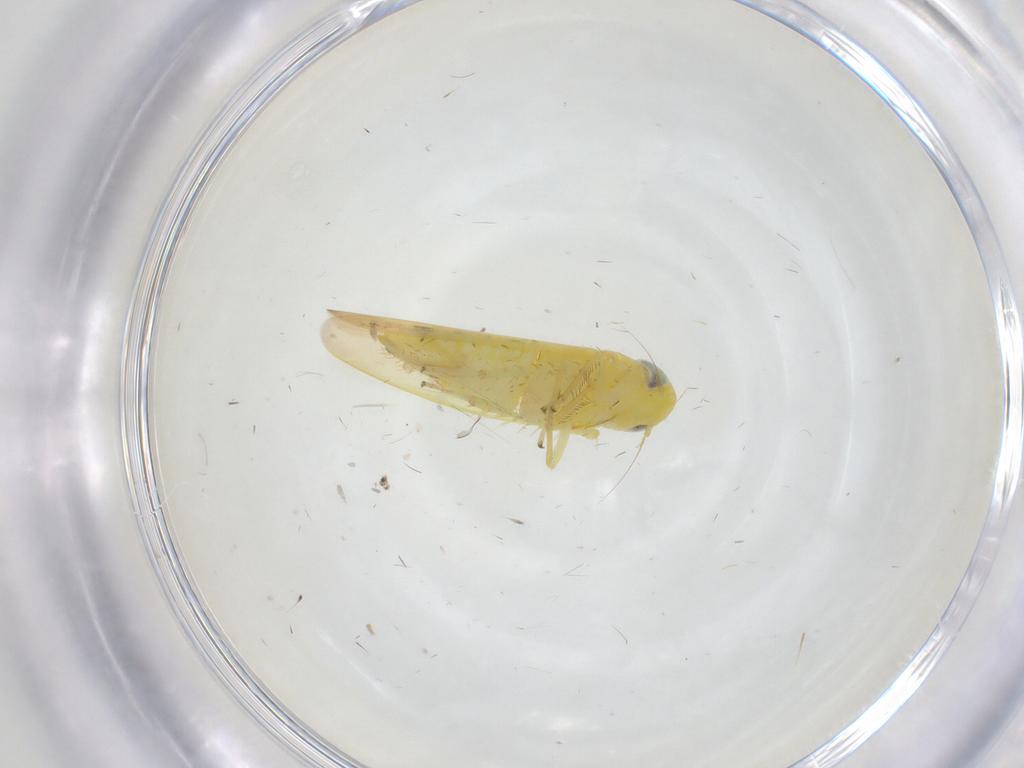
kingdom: Animalia
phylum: Arthropoda
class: Insecta
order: Hemiptera
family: Cicadellidae
